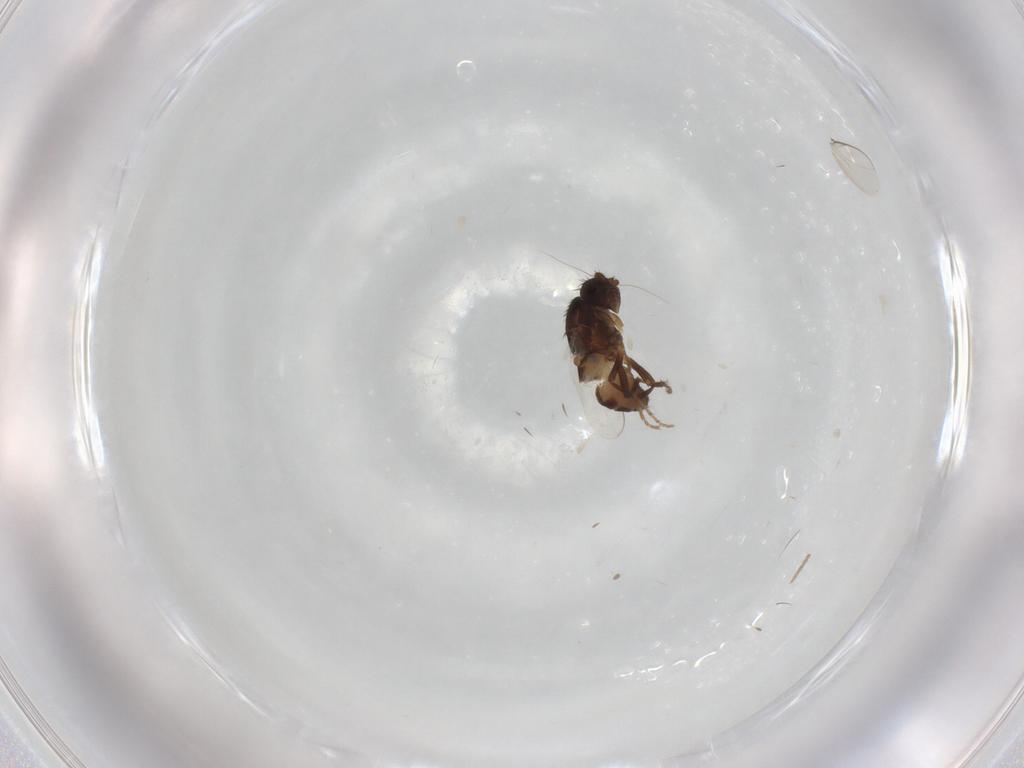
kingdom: Animalia
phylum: Arthropoda
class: Insecta
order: Diptera
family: Sphaeroceridae
